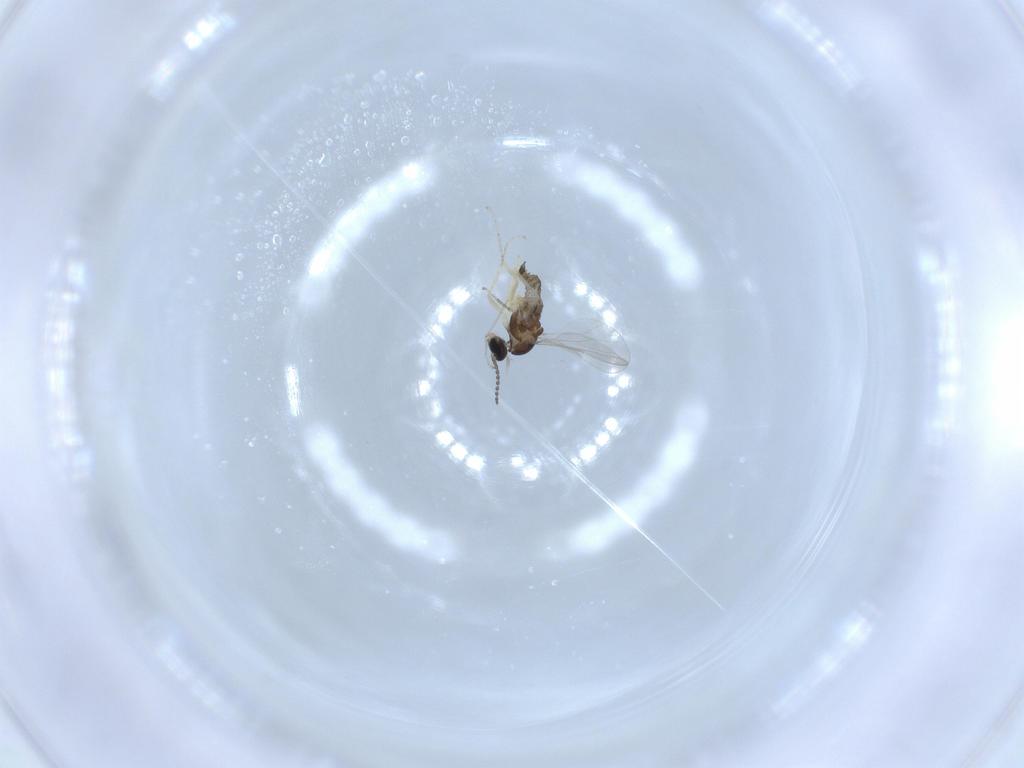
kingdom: Animalia
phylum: Arthropoda
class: Insecta
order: Diptera
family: Cecidomyiidae
